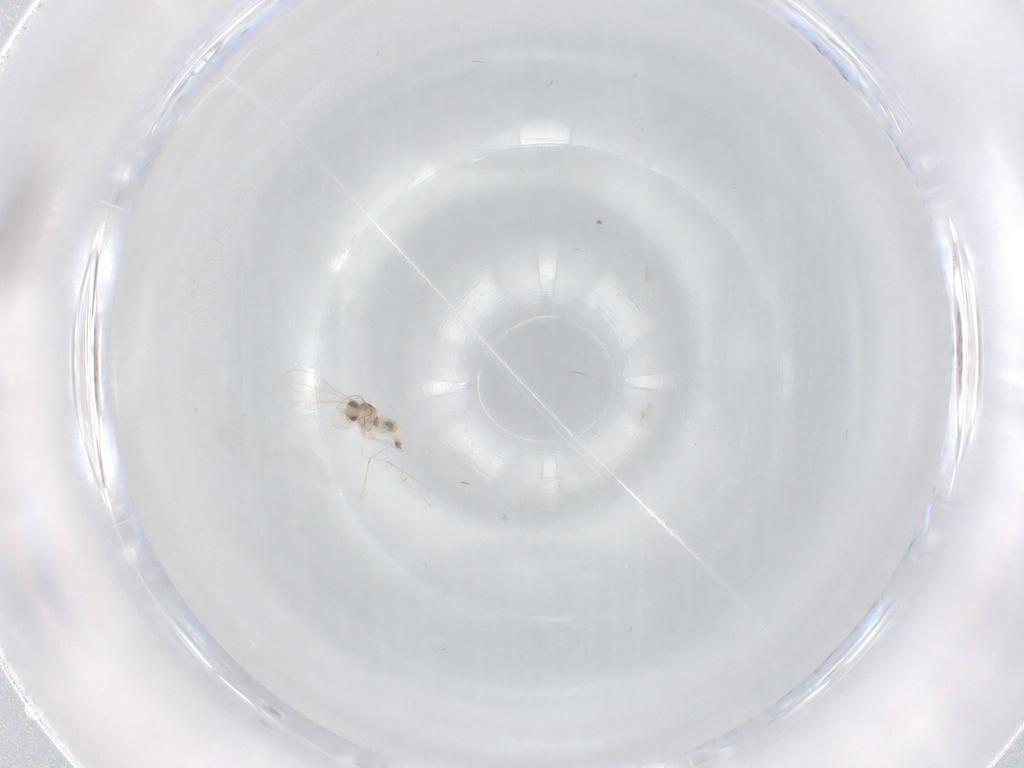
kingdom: Animalia
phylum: Arthropoda
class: Insecta
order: Diptera
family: Cecidomyiidae
